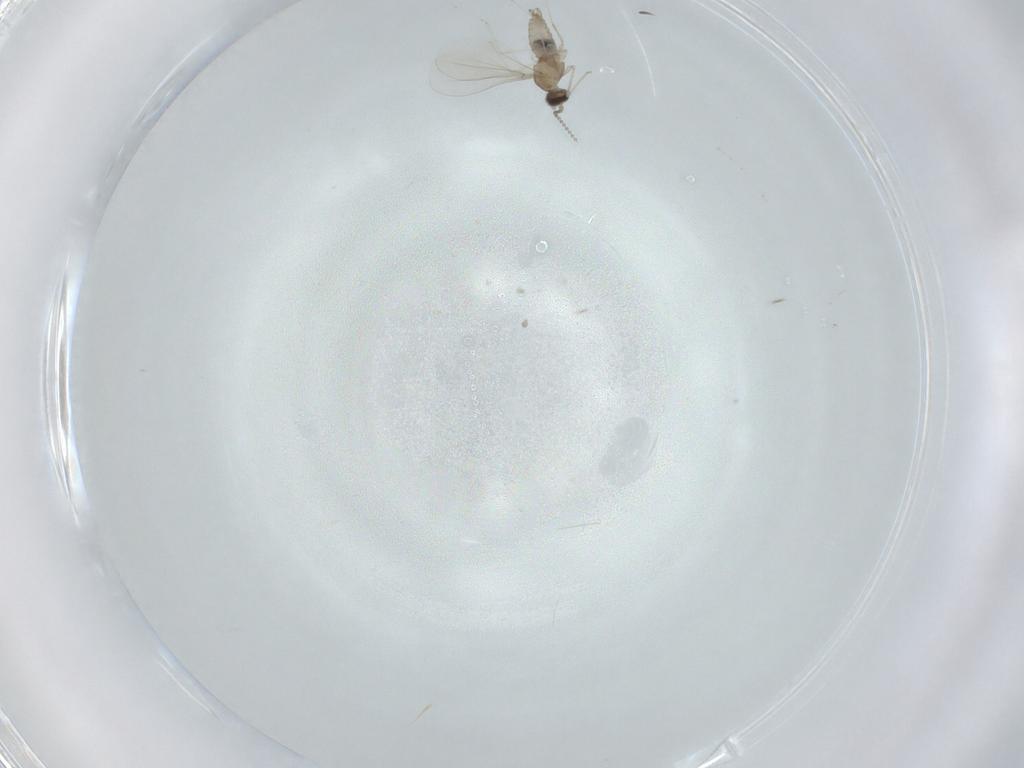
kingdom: Animalia
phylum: Arthropoda
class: Insecta
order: Diptera
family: Cecidomyiidae
